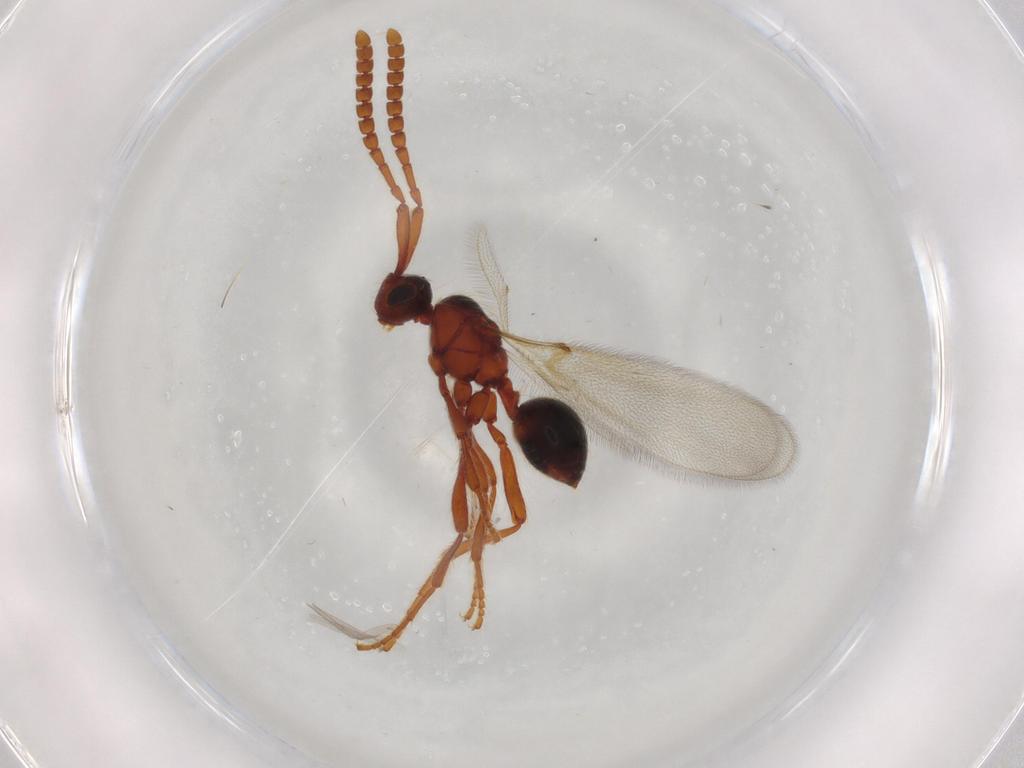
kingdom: Animalia
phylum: Arthropoda
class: Insecta
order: Hymenoptera
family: Diapriidae
